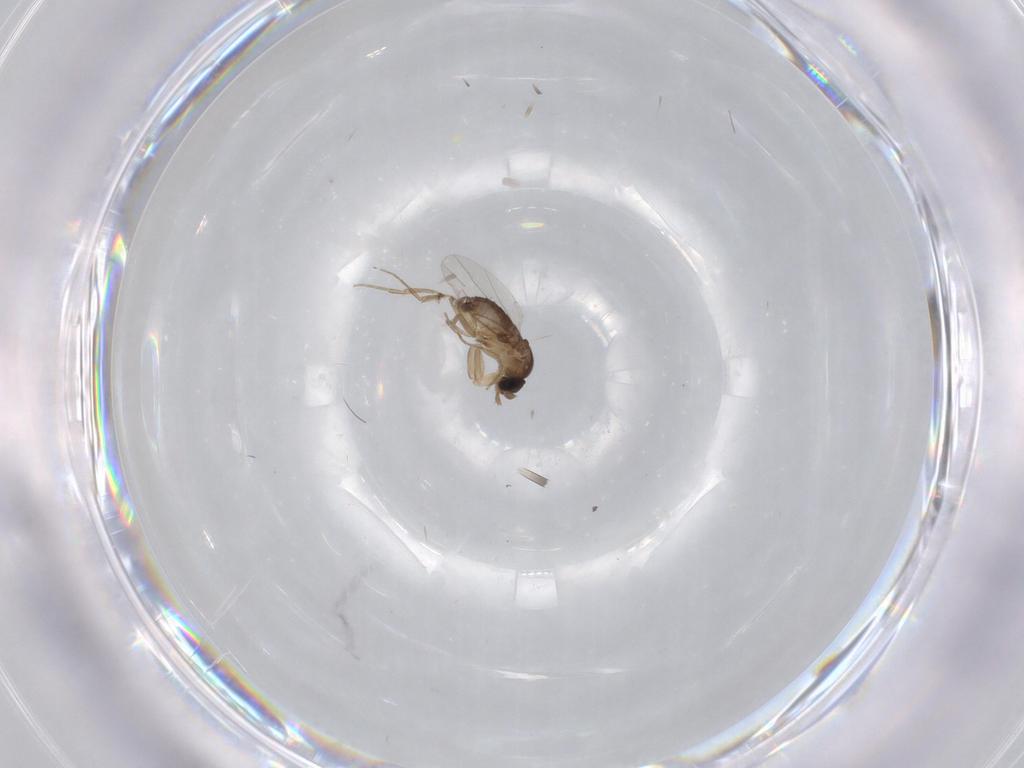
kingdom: Animalia
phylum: Arthropoda
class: Insecta
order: Diptera
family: Phoridae
